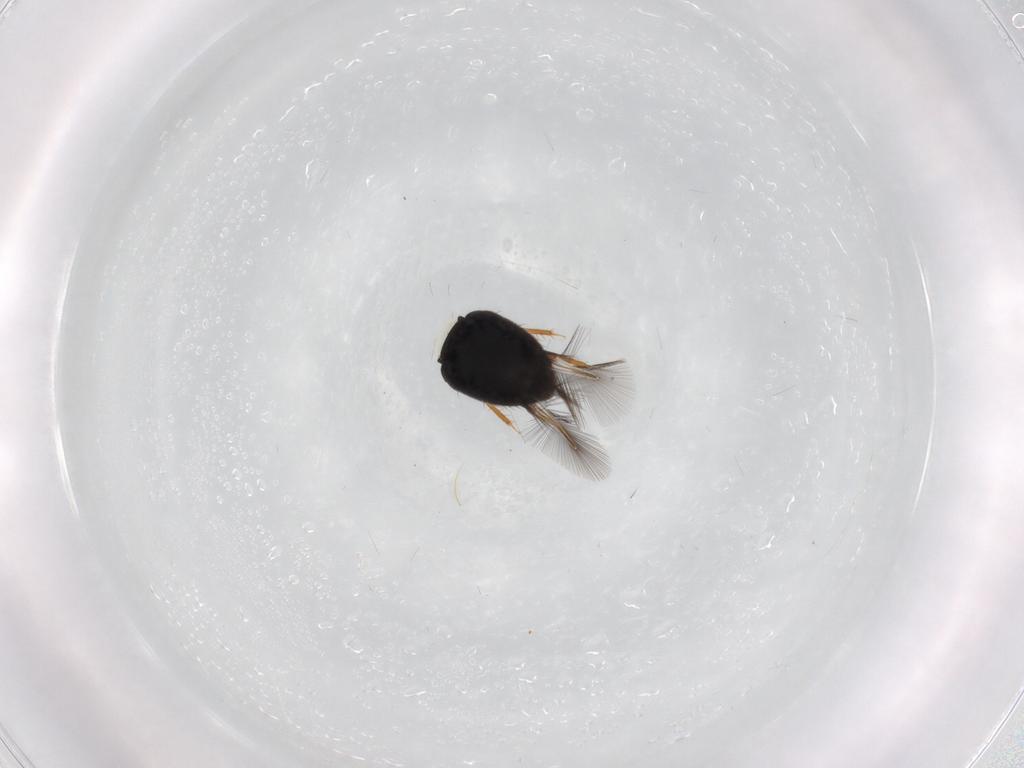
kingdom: Animalia
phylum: Arthropoda
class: Insecta
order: Coleoptera
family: Ptiliidae
